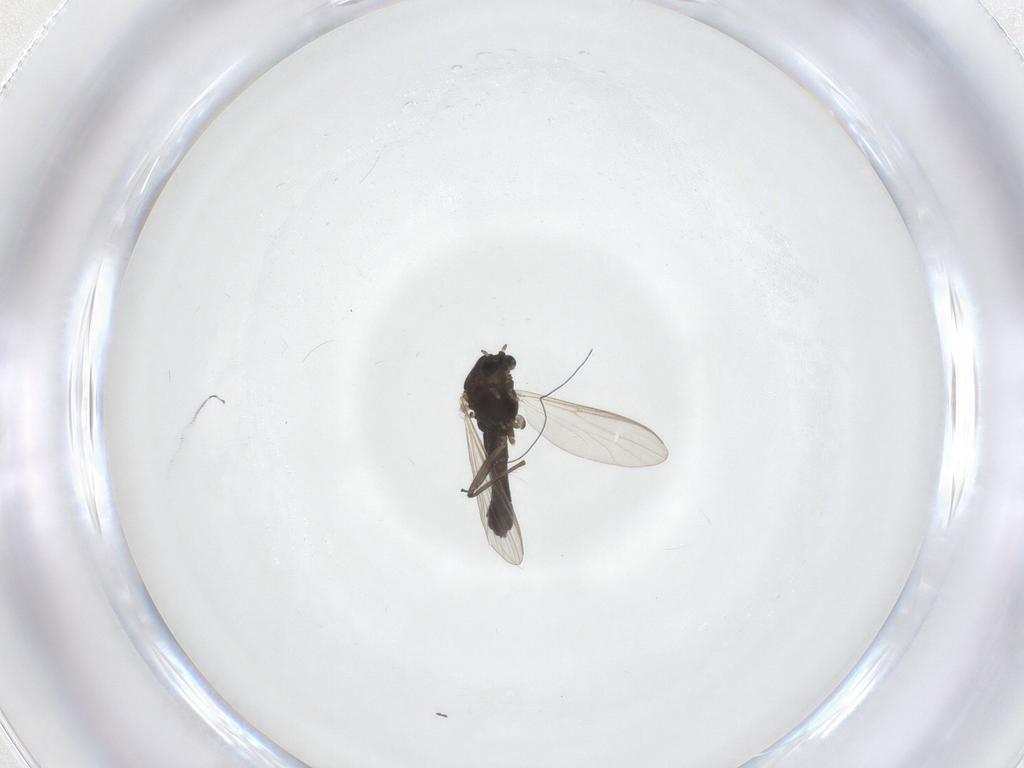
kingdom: Animalia
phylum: Arthropoda
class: Insecta
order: Diptera
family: Chironomidae
